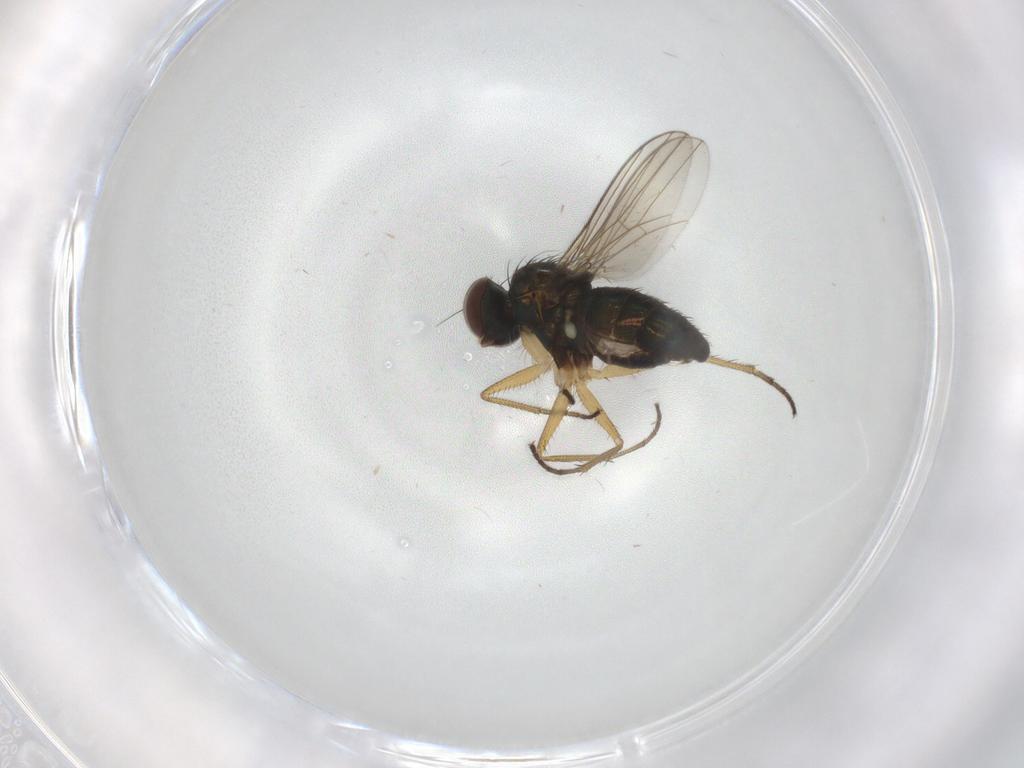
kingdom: Animalia
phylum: Arthropoda
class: Insecta
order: Diptera
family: Dolichopodidae
